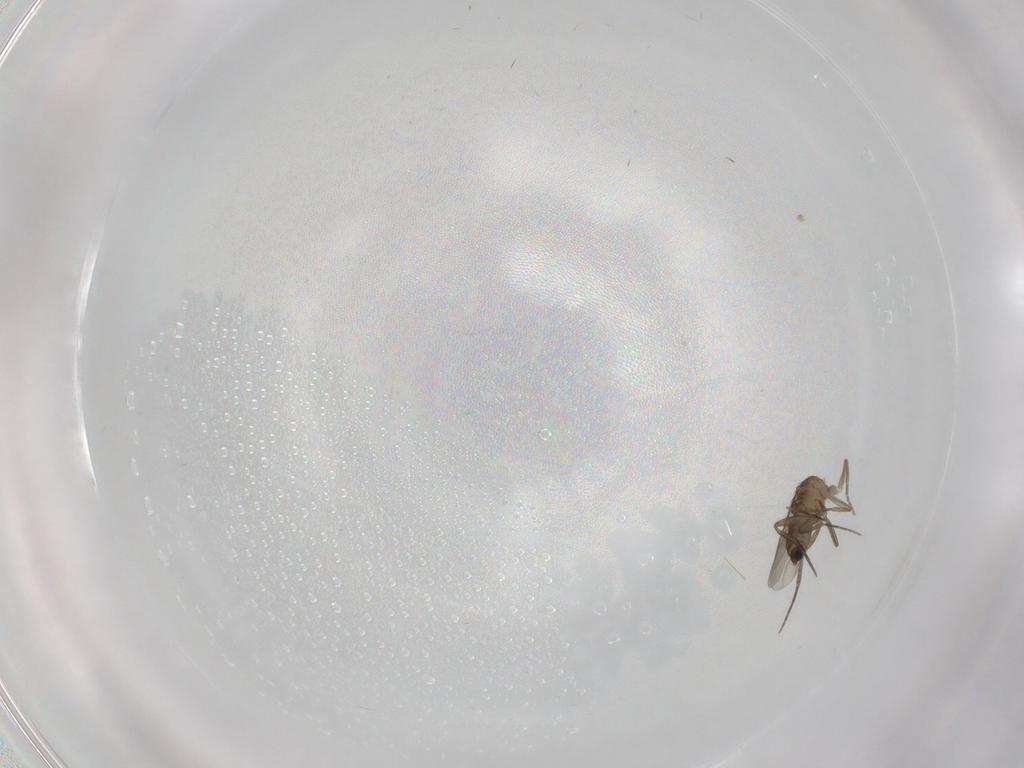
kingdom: Animalia
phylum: Arthropoda
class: Insecta
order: Diptera
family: Phoridae
